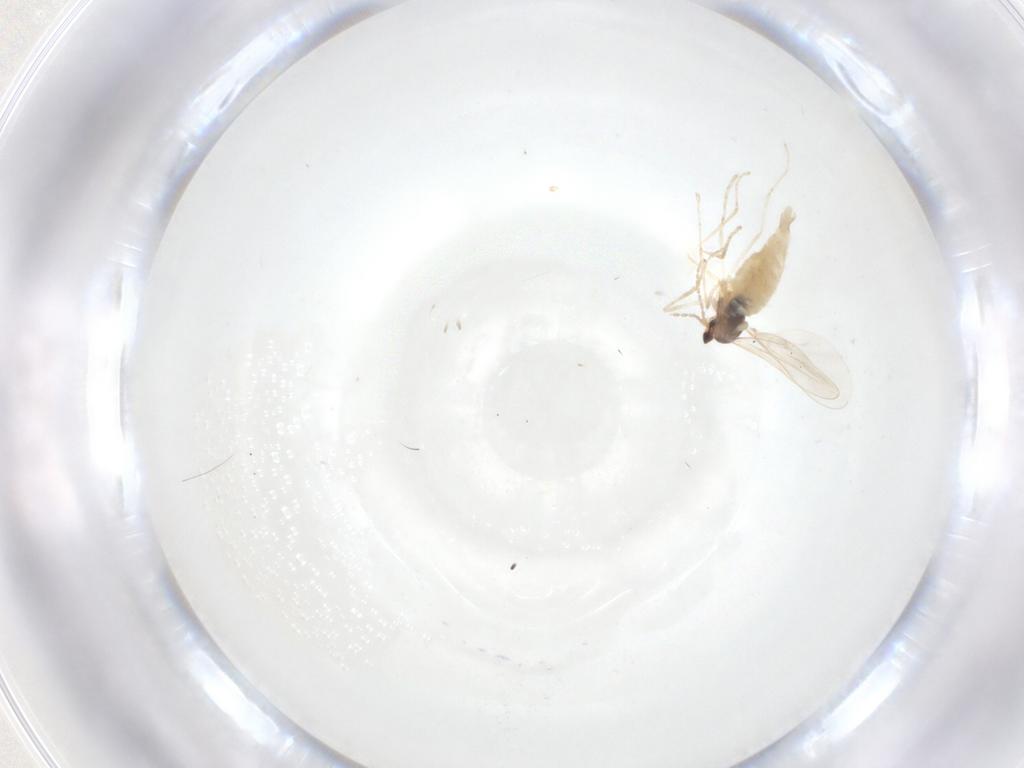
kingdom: Animalia
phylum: Arthropoda
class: Insecta
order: Diptera
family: Cecidomyiidae
